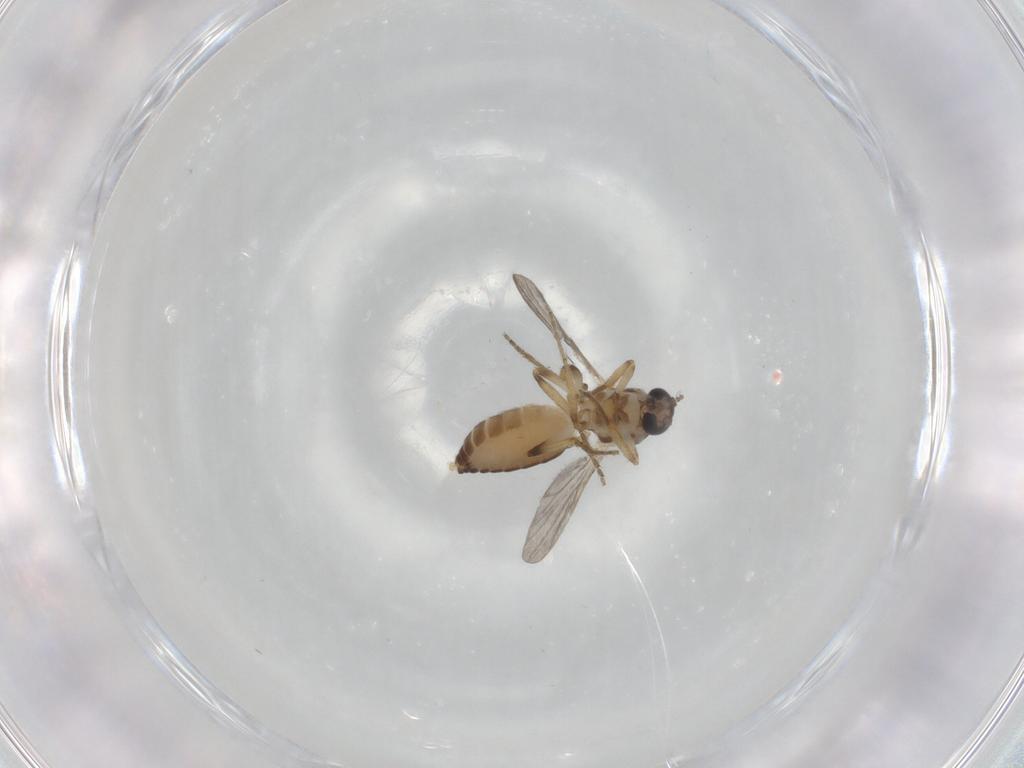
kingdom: Animalia
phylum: Arthropoda
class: Insecta
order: Diptera
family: Ceratopogonidae
